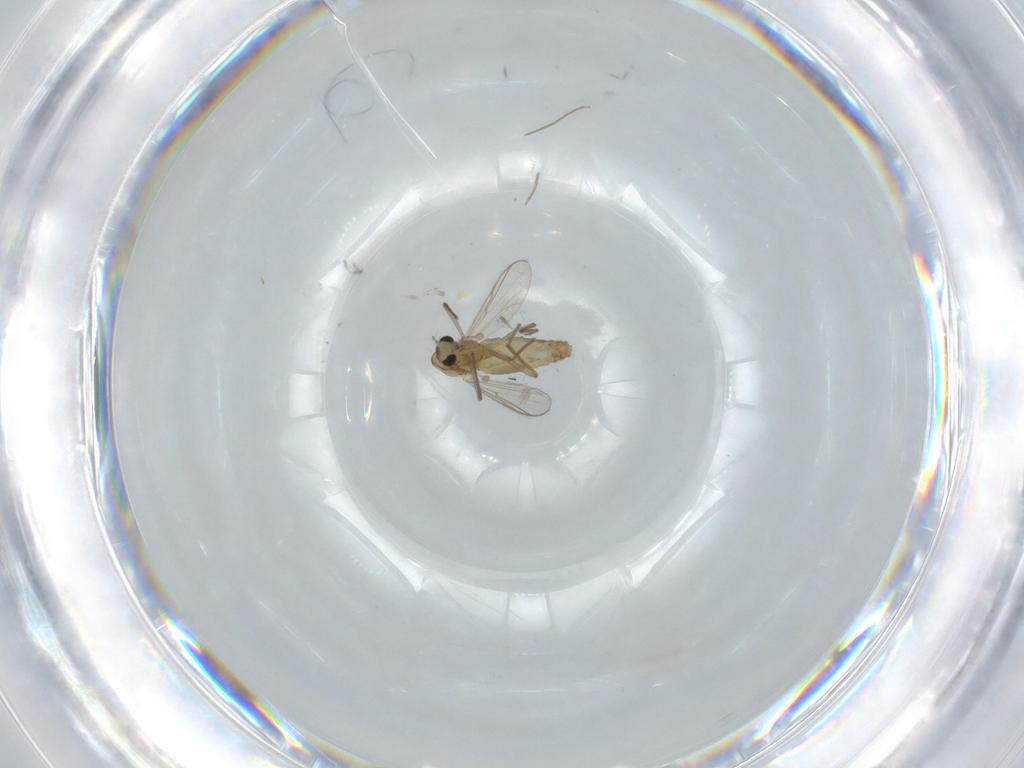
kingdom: Animalia
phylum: Arthropoda
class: Insecta
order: Diptera
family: Chironomidae
